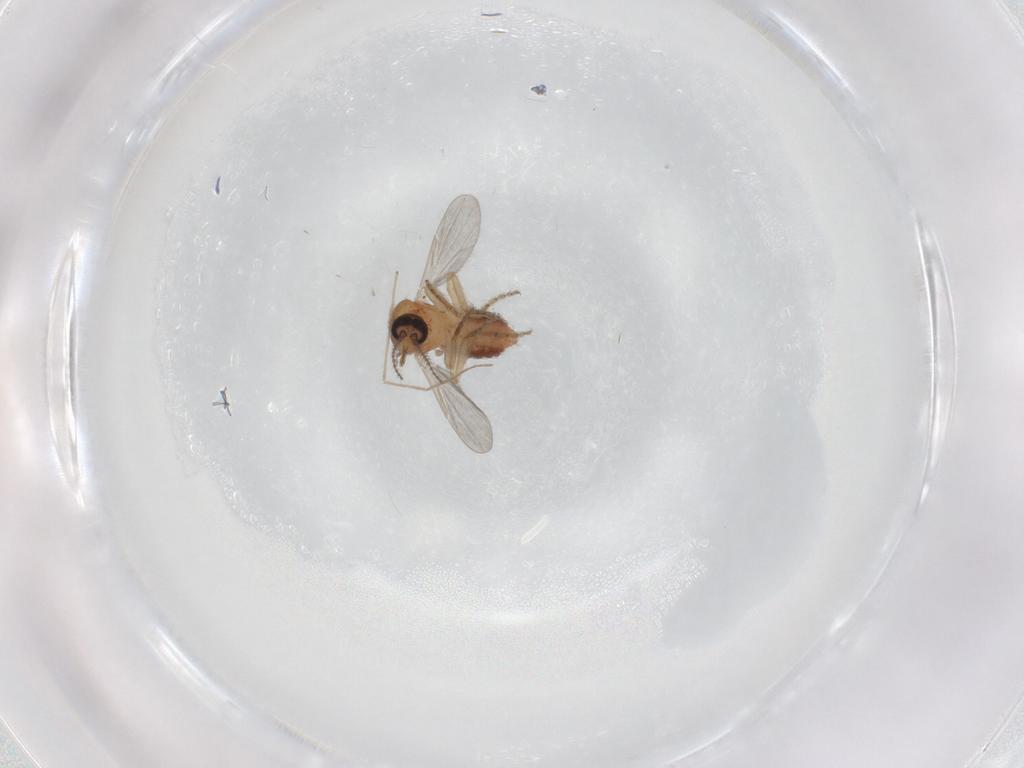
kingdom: Animalia
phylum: Arthropoda
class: Insecta
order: Diptera
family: Ceratopogonidae
